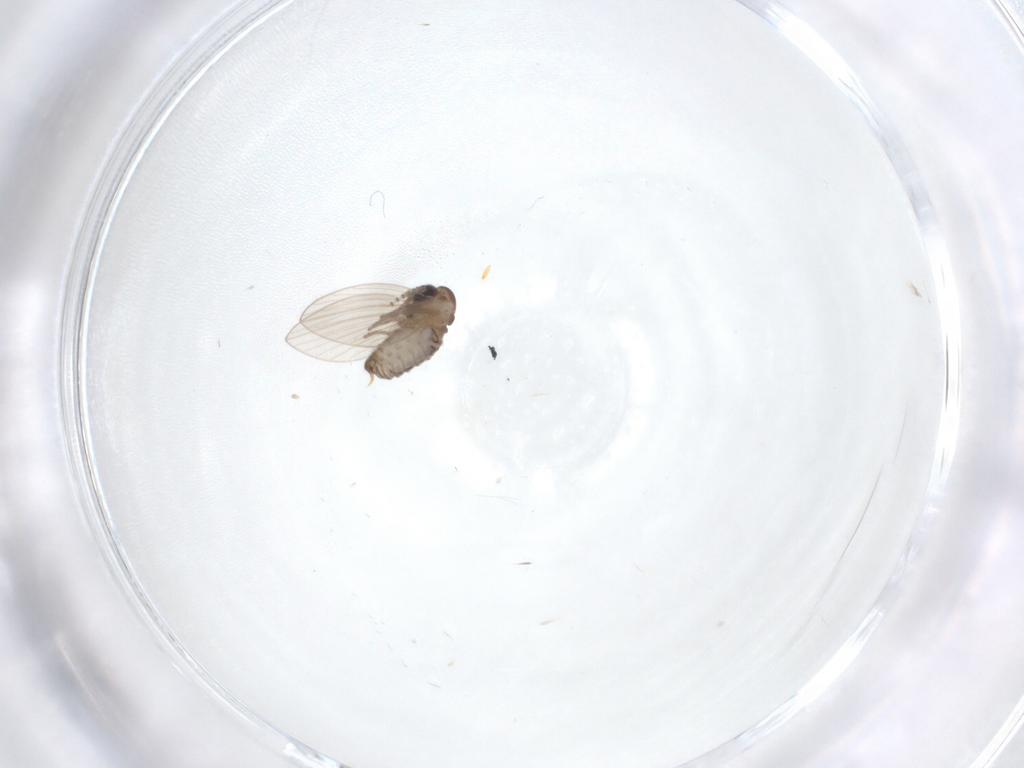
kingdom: Animalia
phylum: Arthropoda
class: Insecta
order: Diptera
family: Psychodidae
